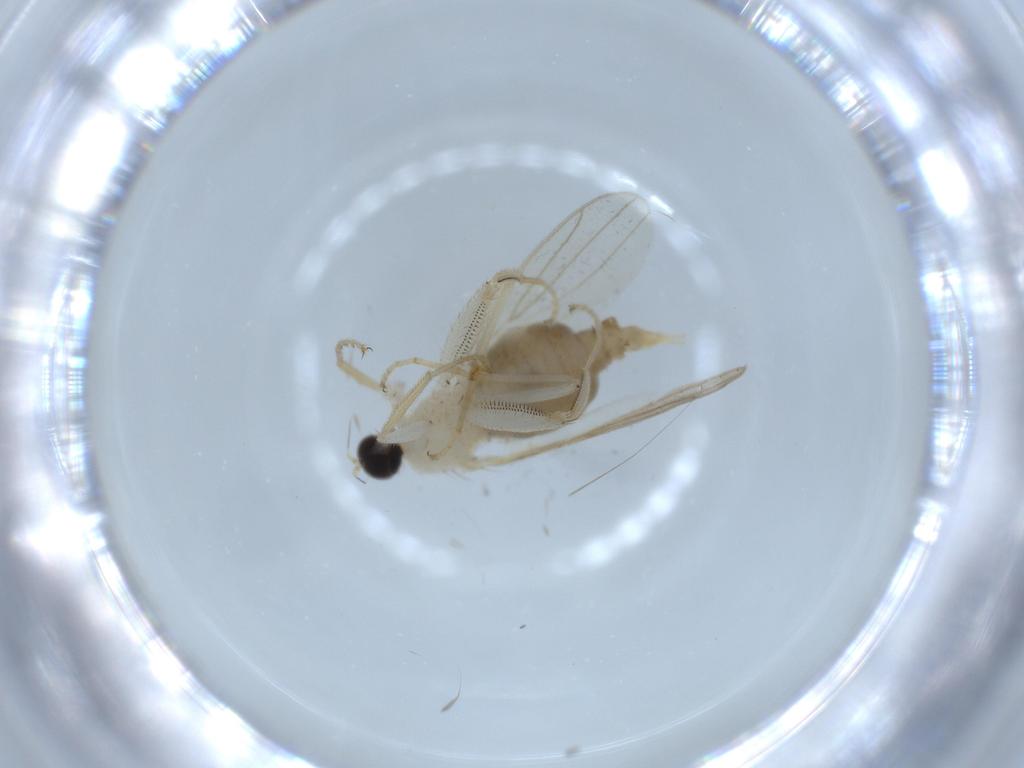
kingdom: Animalia
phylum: Arthropoda
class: Insecta
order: Diptera
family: Hybotidae
